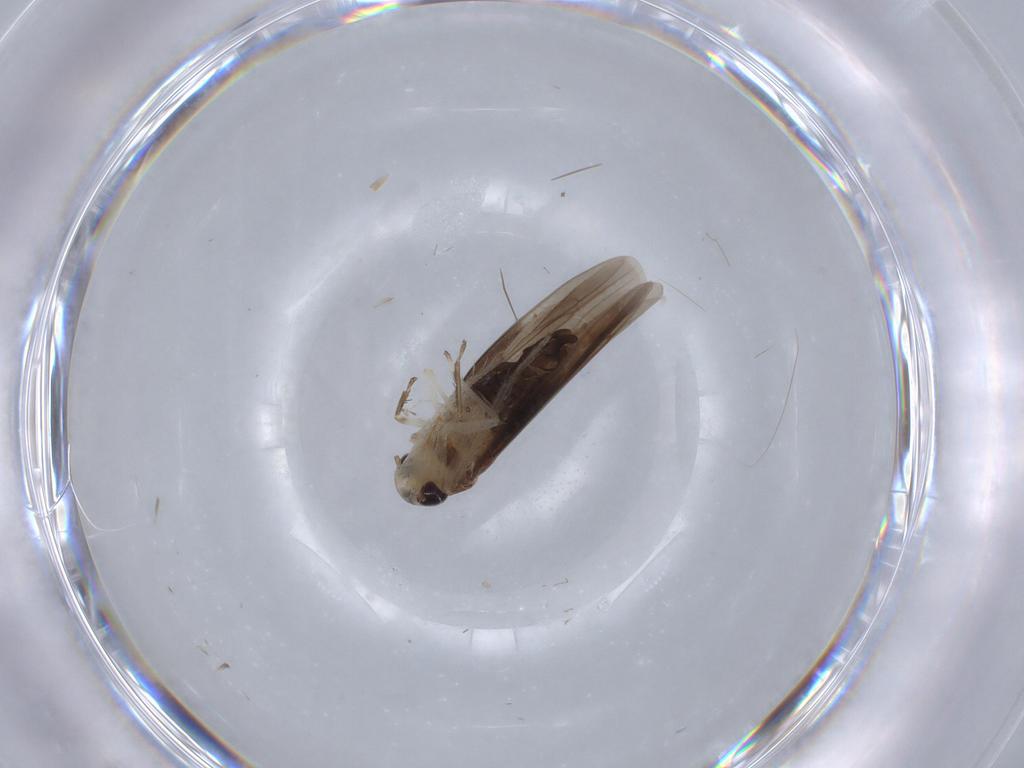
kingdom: Animalia
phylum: Arthropoda
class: Insecta
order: Hemiptera
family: Cicadellidae
